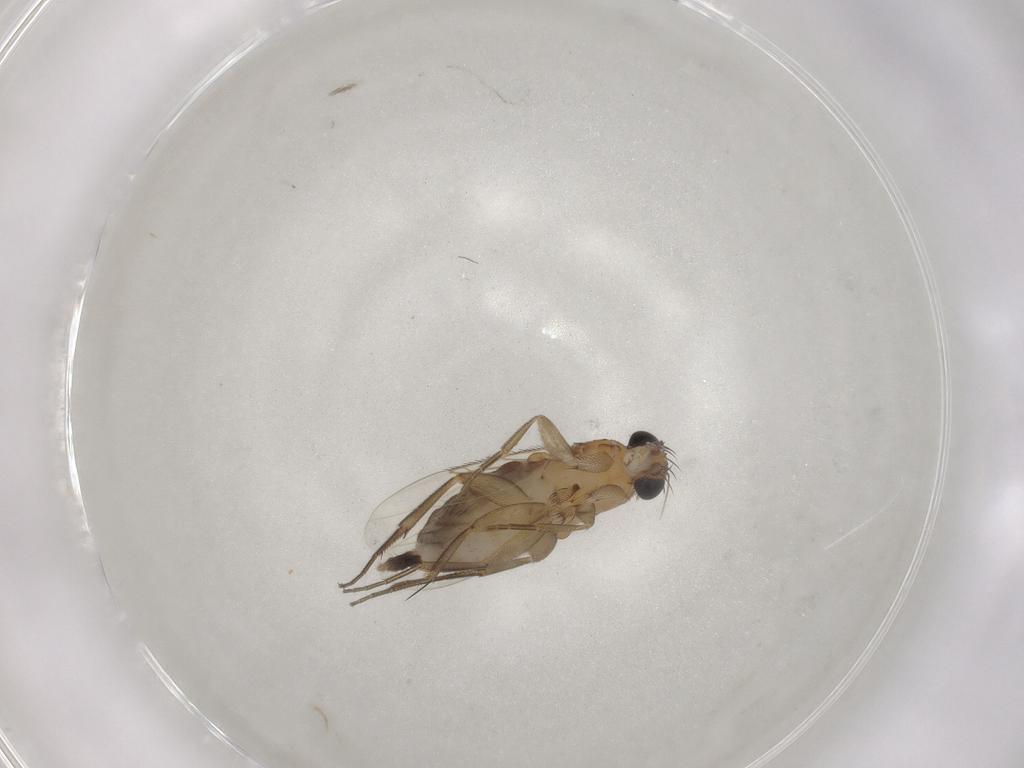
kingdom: Animalia
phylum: Arthropoda
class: Insecta
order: Diptera
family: Phoridae
